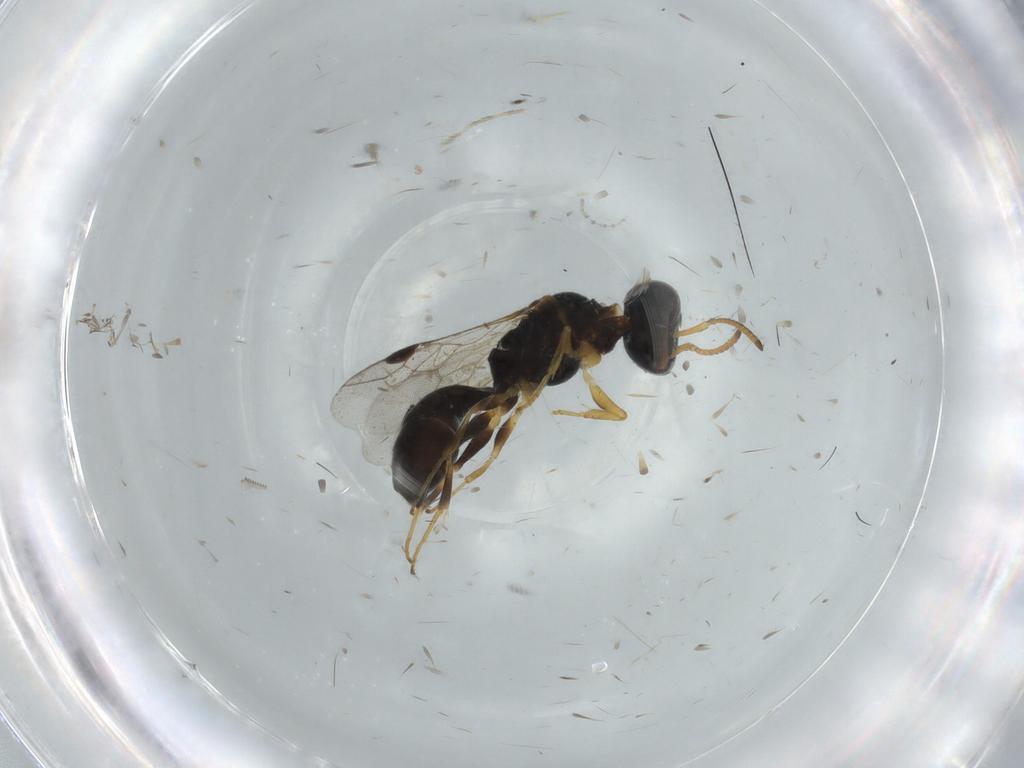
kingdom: Animalia
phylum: Arthropoda
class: Insecta
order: Hymenoptera
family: Pemphredonidae
